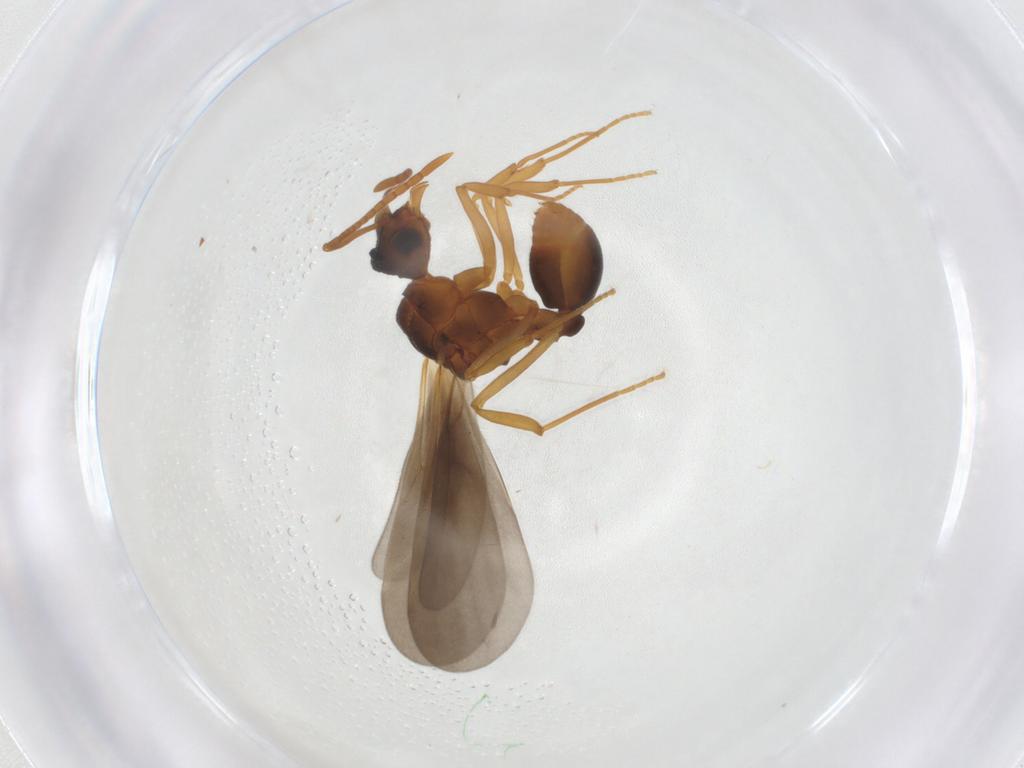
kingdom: Animalia
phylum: Arthropoda
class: Insecta
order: Hymenoptera
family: Formicidae
